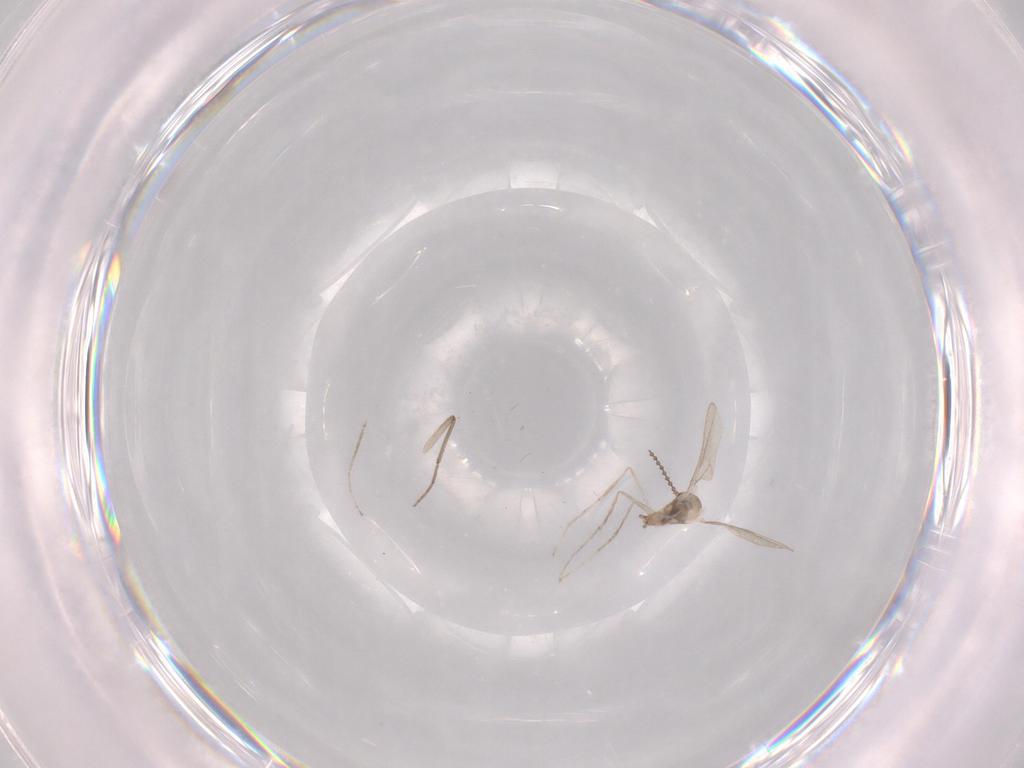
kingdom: Animalia
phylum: Arthropoda
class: Insecta
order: Diptera
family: Cecidomyiidae
